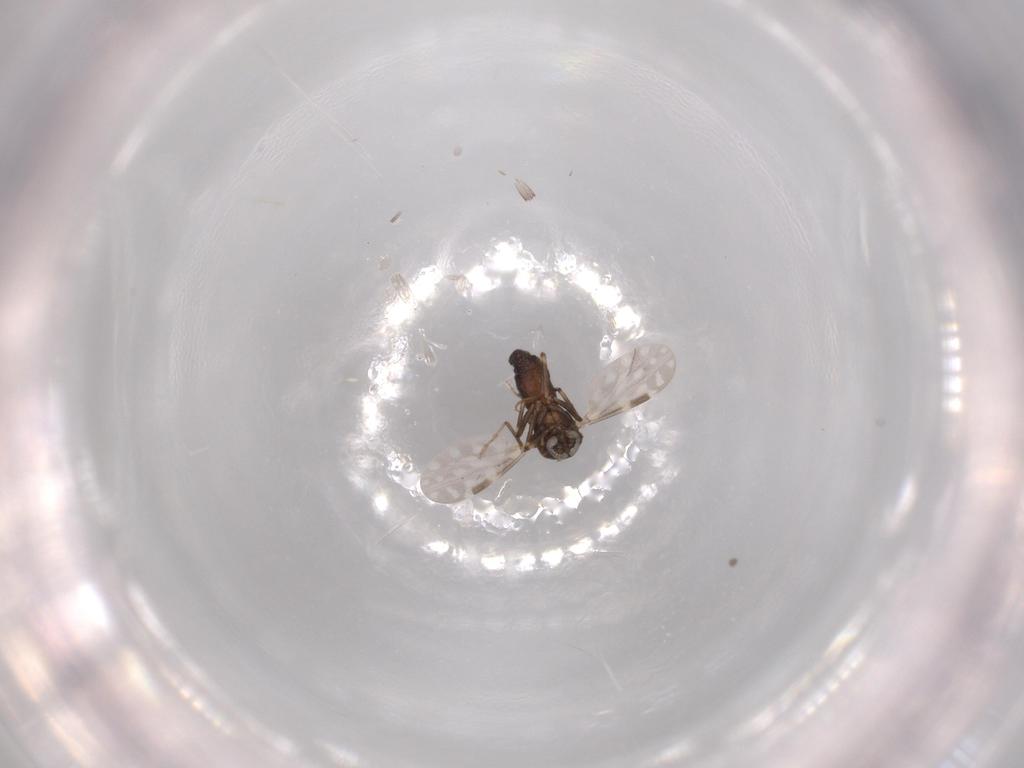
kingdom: Animalia
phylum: Arthropoda
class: Insecta
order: Diptera
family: Ceratopogonidae
